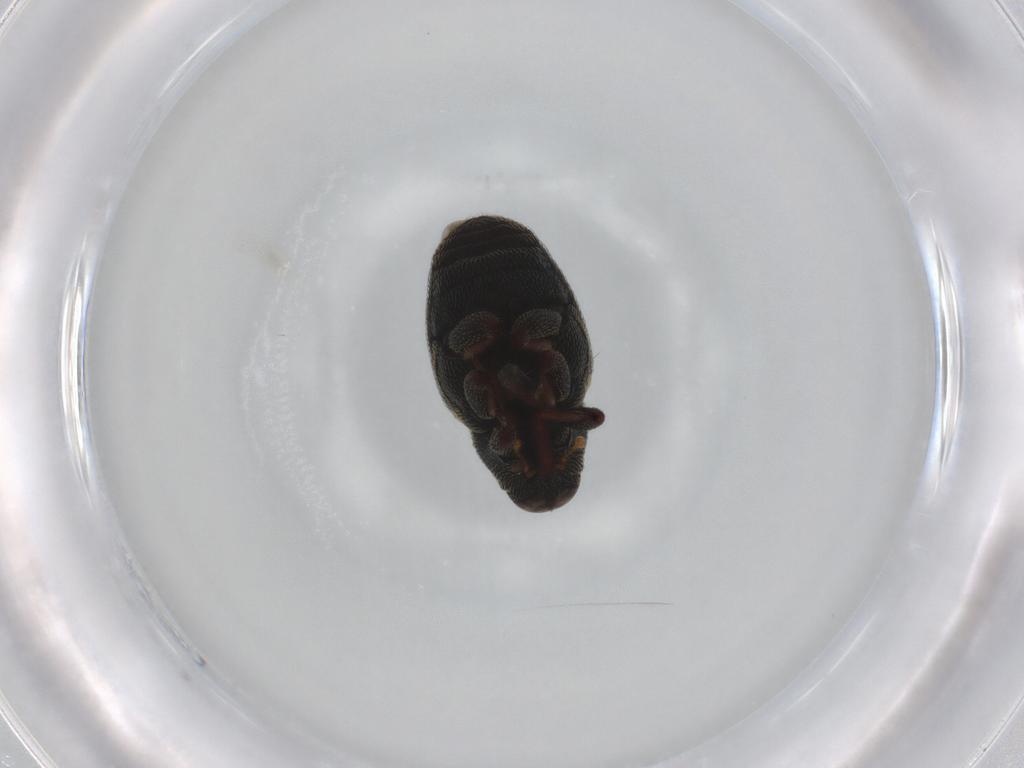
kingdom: Animalia
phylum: Arthropoda
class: Insecta
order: Coleoptera
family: Curculionidae
